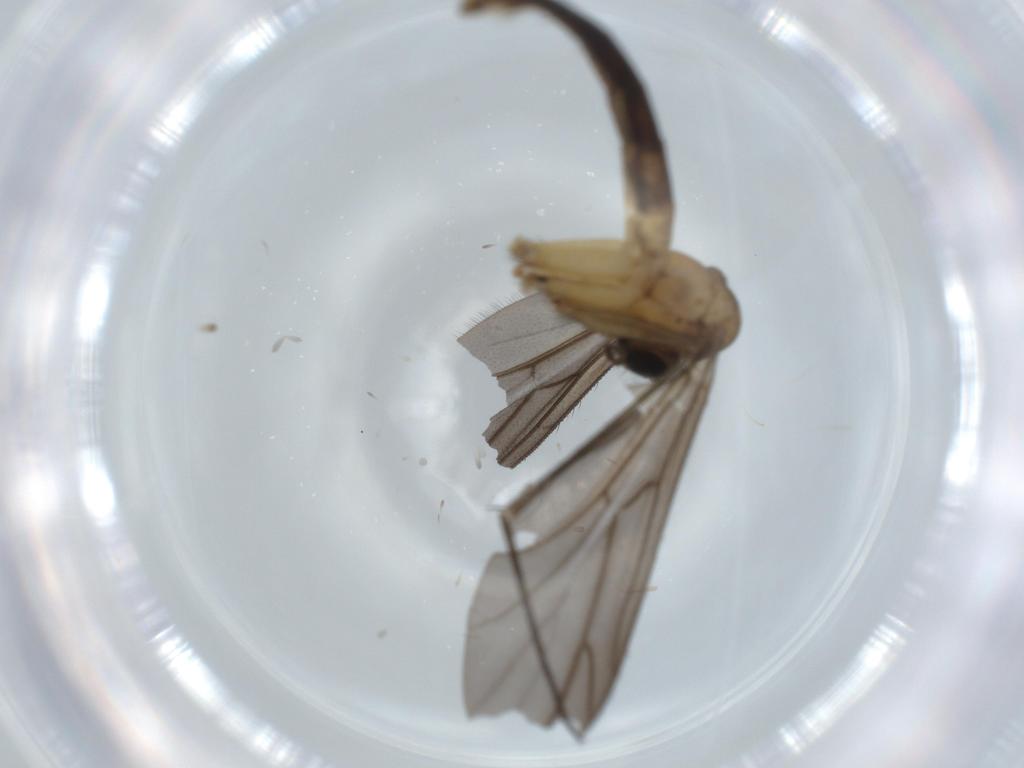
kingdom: Animalia
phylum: Arthropoda
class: Insecta
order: Diptera
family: Ditomyiidae
